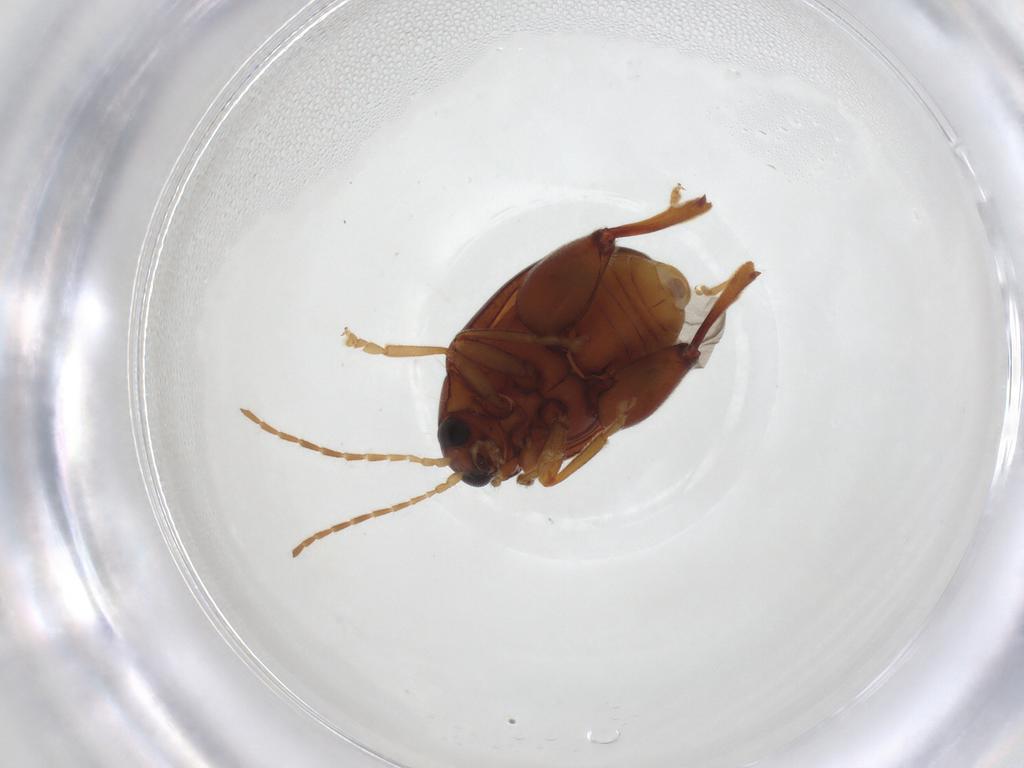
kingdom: Animalia
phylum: Arthropoda
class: Insecta
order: Coleoptera
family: Chrysomelidae
